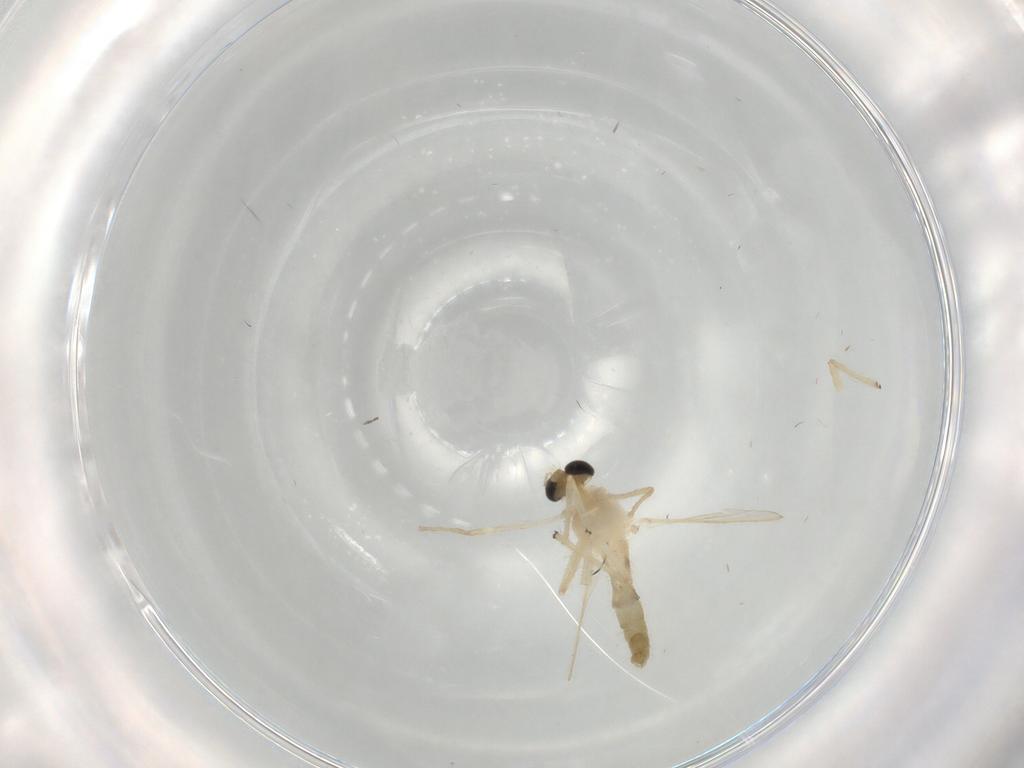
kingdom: Animalia
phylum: Arthropoda
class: Insecta
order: Diptera
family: Chironomidae
